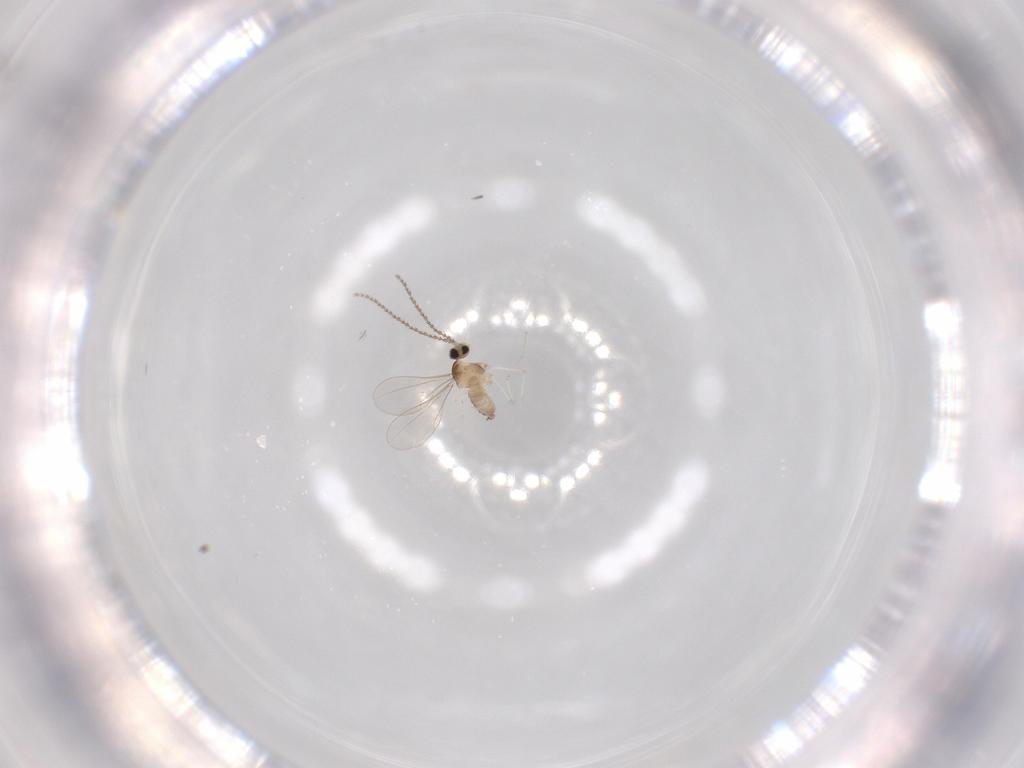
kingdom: Animalia
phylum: Arthropoda
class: Insecta
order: Diptera
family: Cecidomyiidae
